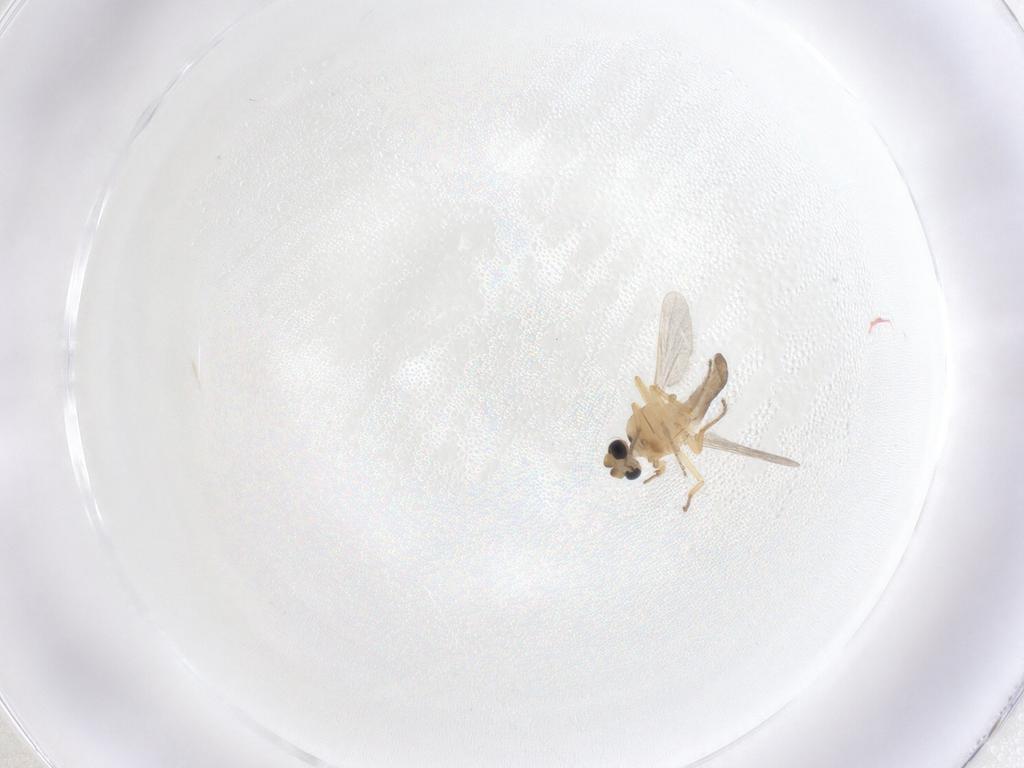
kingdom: Animalia
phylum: Arthropoda
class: Insecta
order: Diptera
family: Ceratopogonidae
